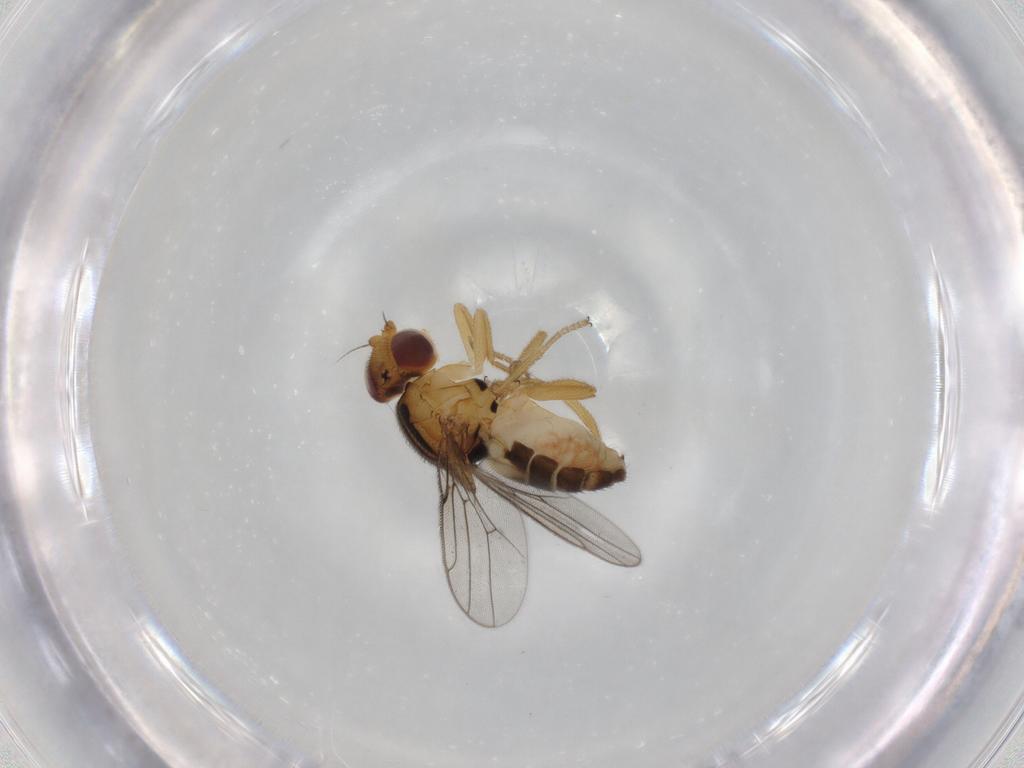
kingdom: Animalia
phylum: Arthropoda
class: Insecta
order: Diptera
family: Chloropidae
